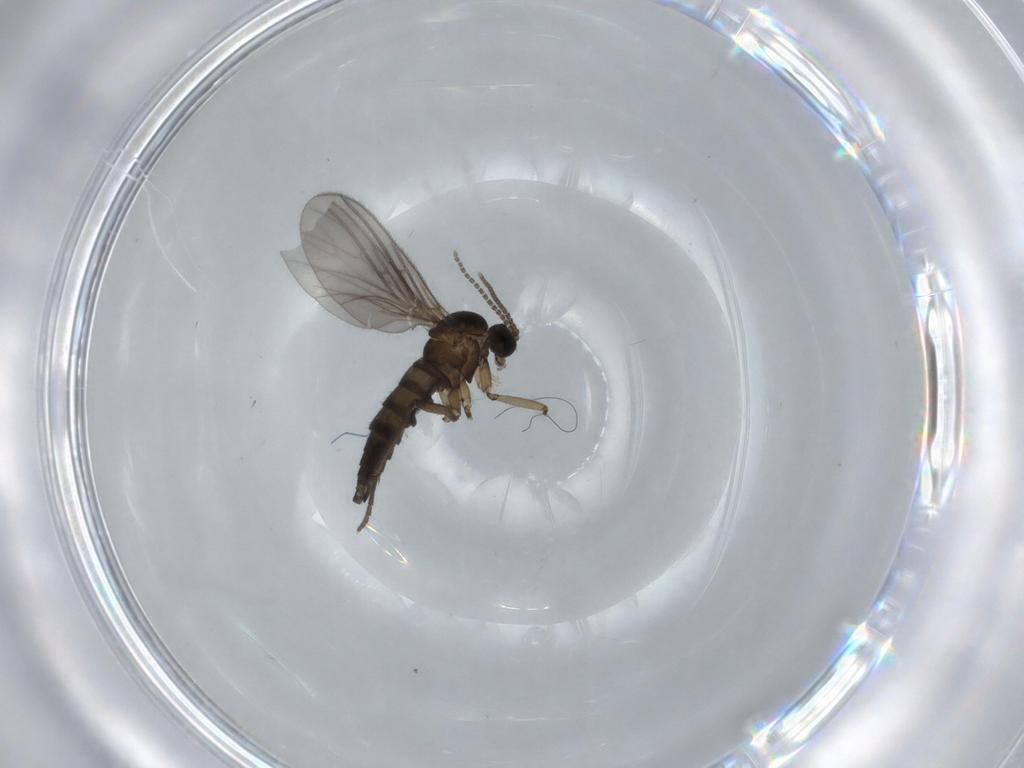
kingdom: Animalia
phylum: Arthropoda
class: Insecta
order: Diptera
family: Sciaridae
